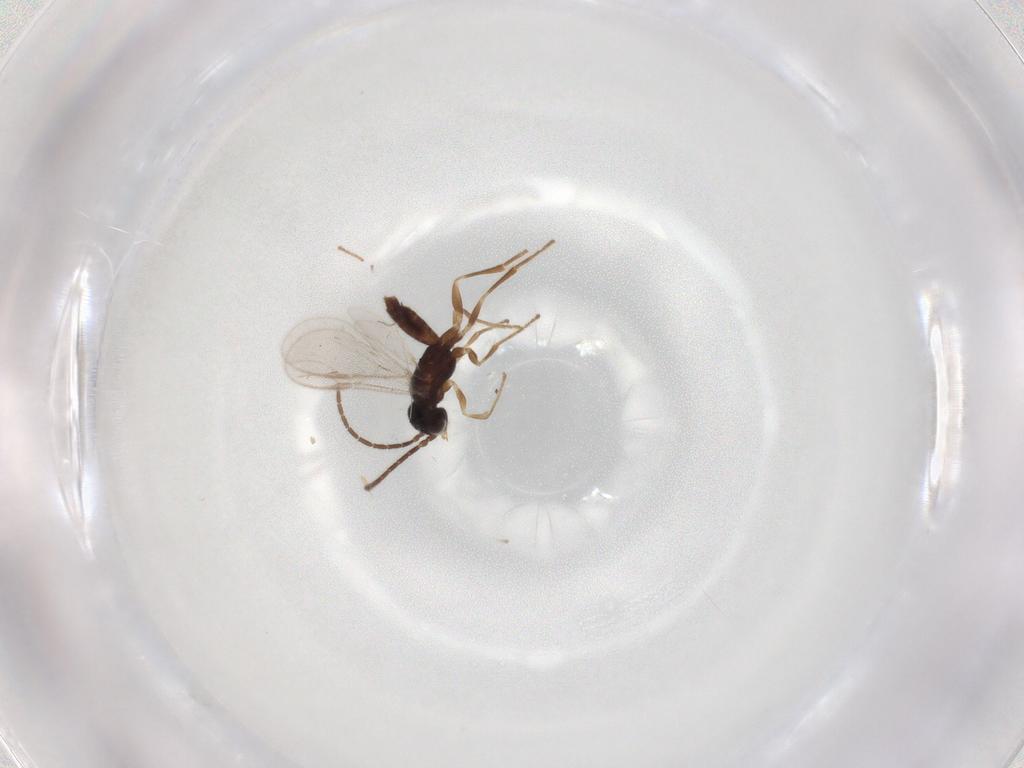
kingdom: Animalia
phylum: Arthropoda
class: Insecta
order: Hymenoptera
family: Dryinidae
